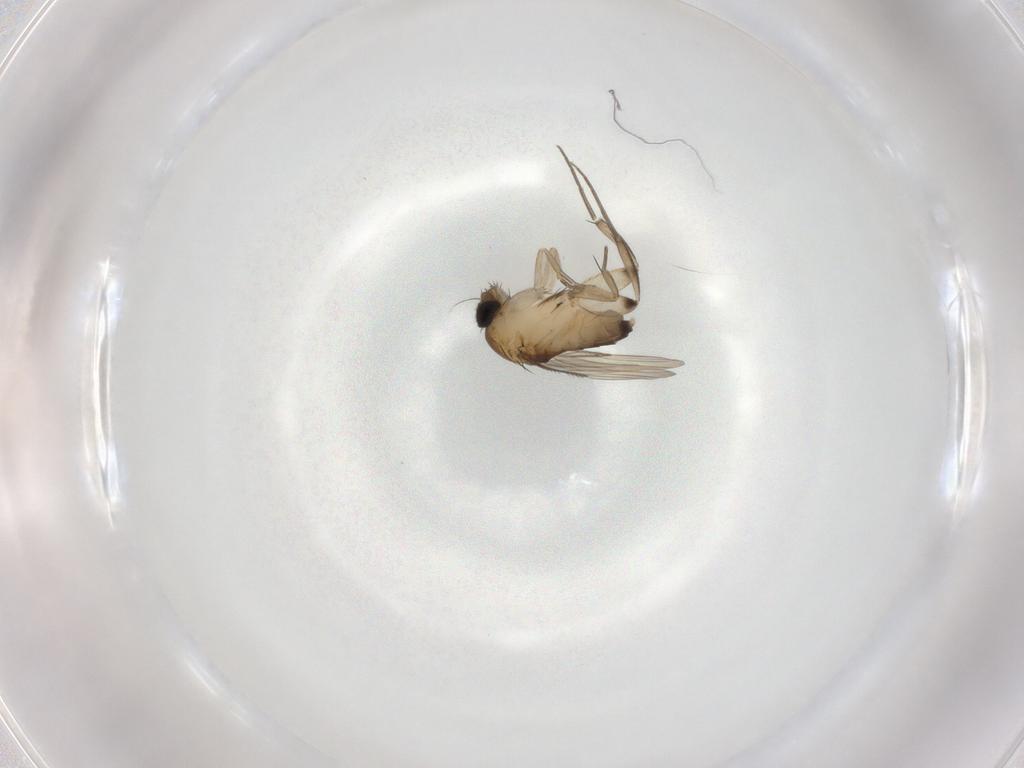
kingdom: Animalia
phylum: Arthropoda
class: Insecta
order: Diptera
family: Phoridae
